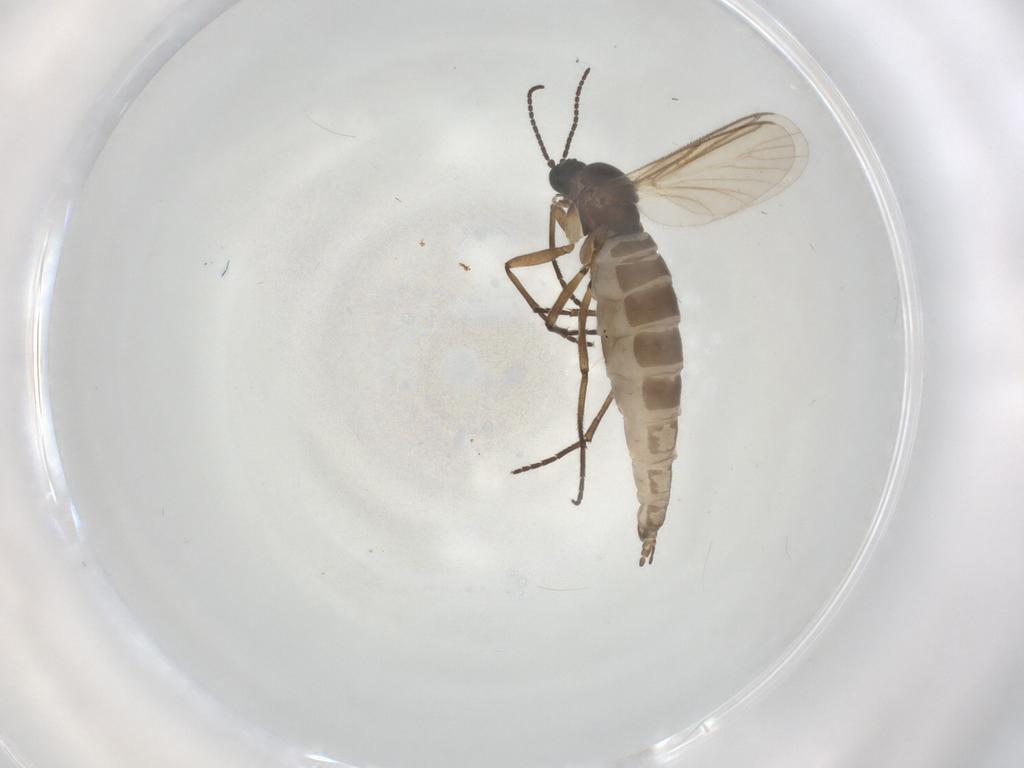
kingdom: Animalia
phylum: Arthropoda
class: Insecta
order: Diptera
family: Sciaridae
